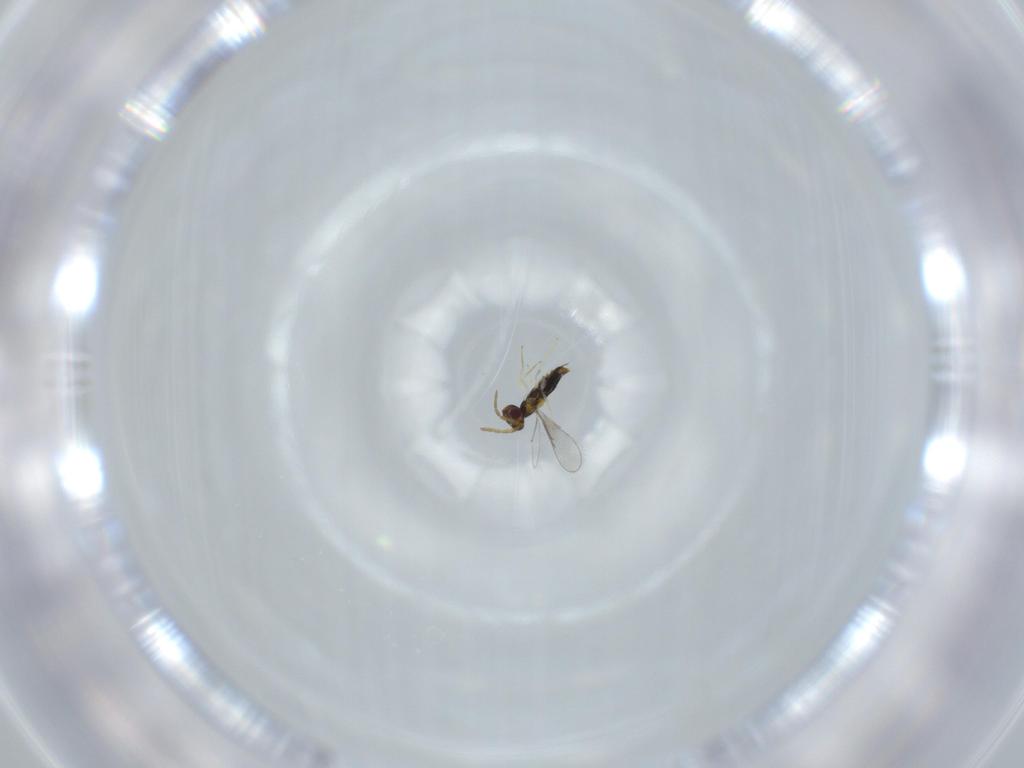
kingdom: Animalia
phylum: Arthropoda
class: Insecta
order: Hymenoptera
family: Aphelinidae
